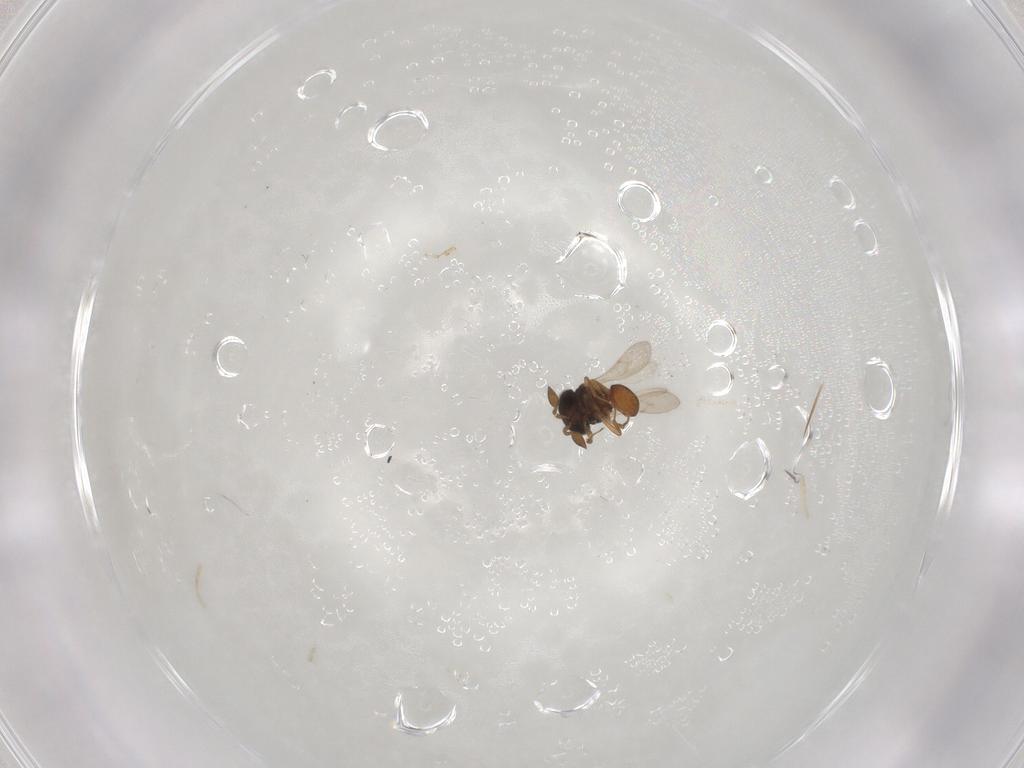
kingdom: Animalia
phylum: Arthropoda
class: Insecta
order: Hymenoptera
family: Scelionidae
